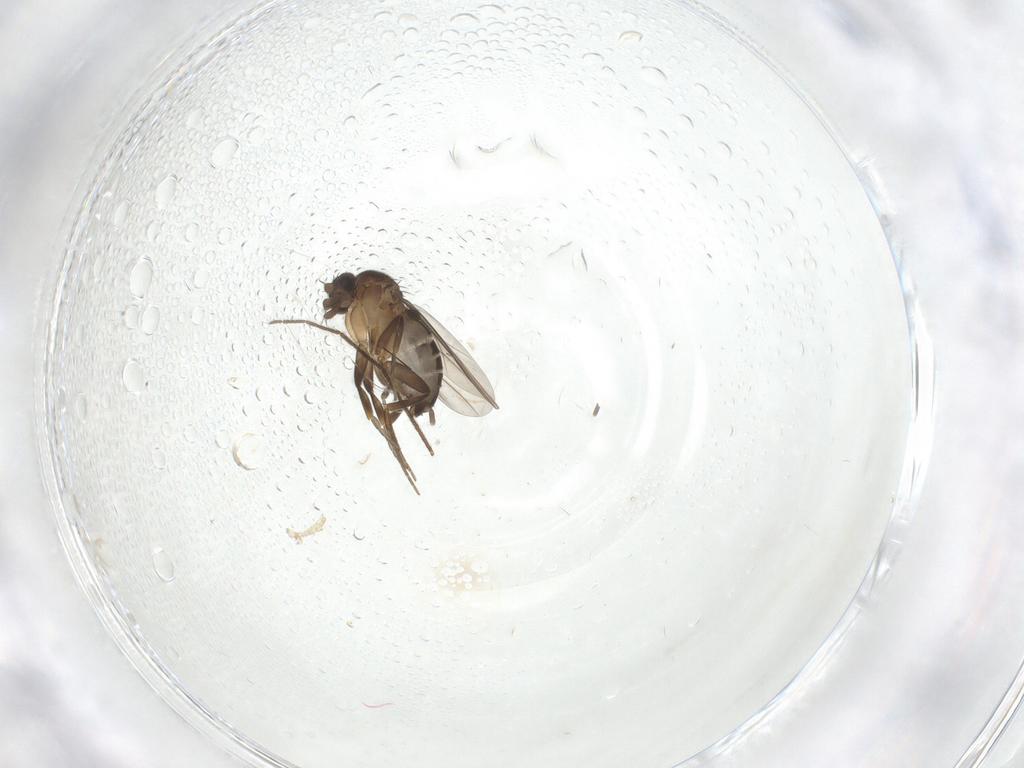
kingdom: Animalia
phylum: Arthropoda
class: Insecta
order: Diptera
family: Phoridae
